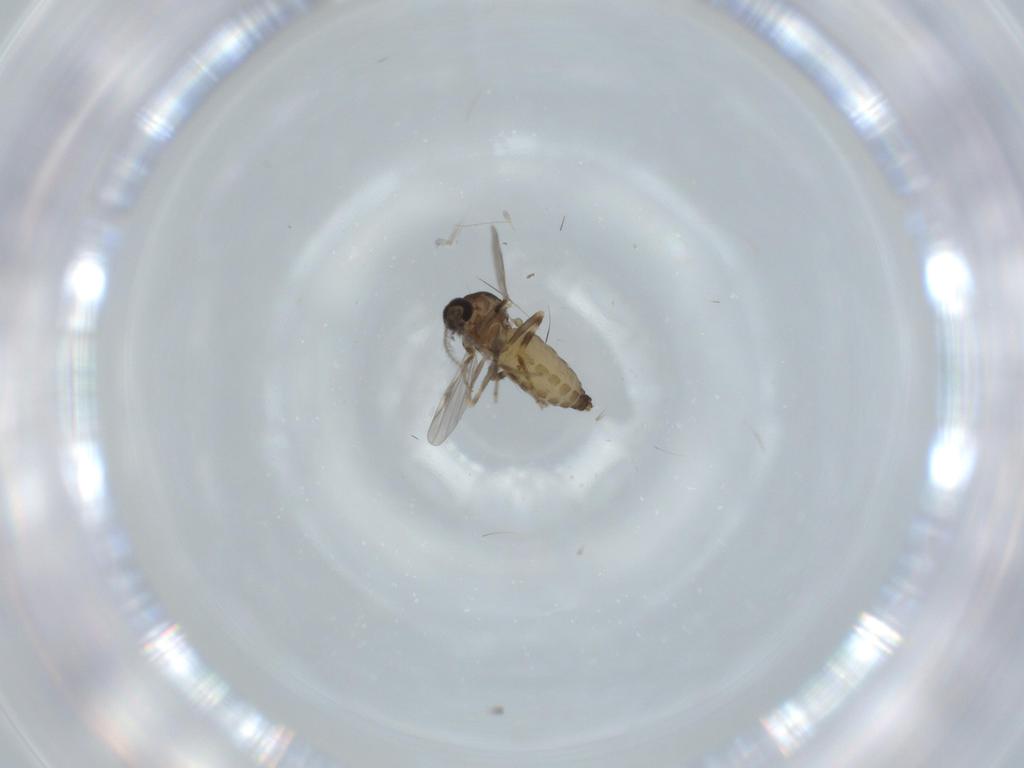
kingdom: Animalia
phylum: Arthropoda
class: Insecta
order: Diptera
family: Ceratopogonidae
